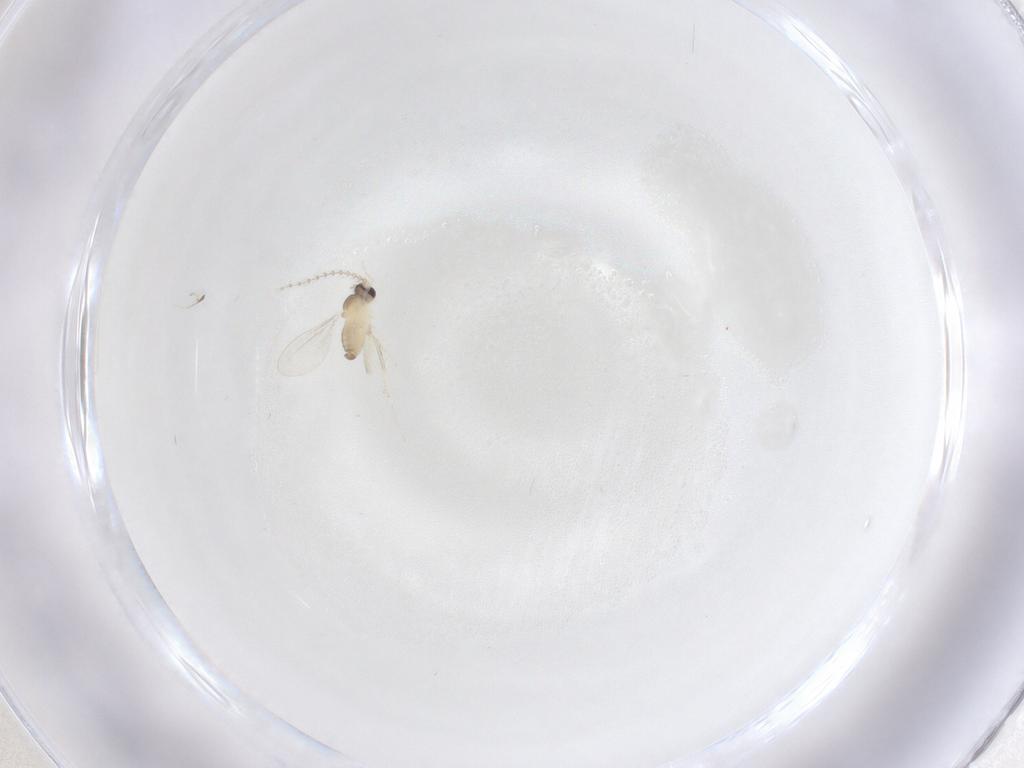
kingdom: Animalia
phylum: Arthropoda
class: Insecta
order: Diptera
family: Cecidomyiidae
